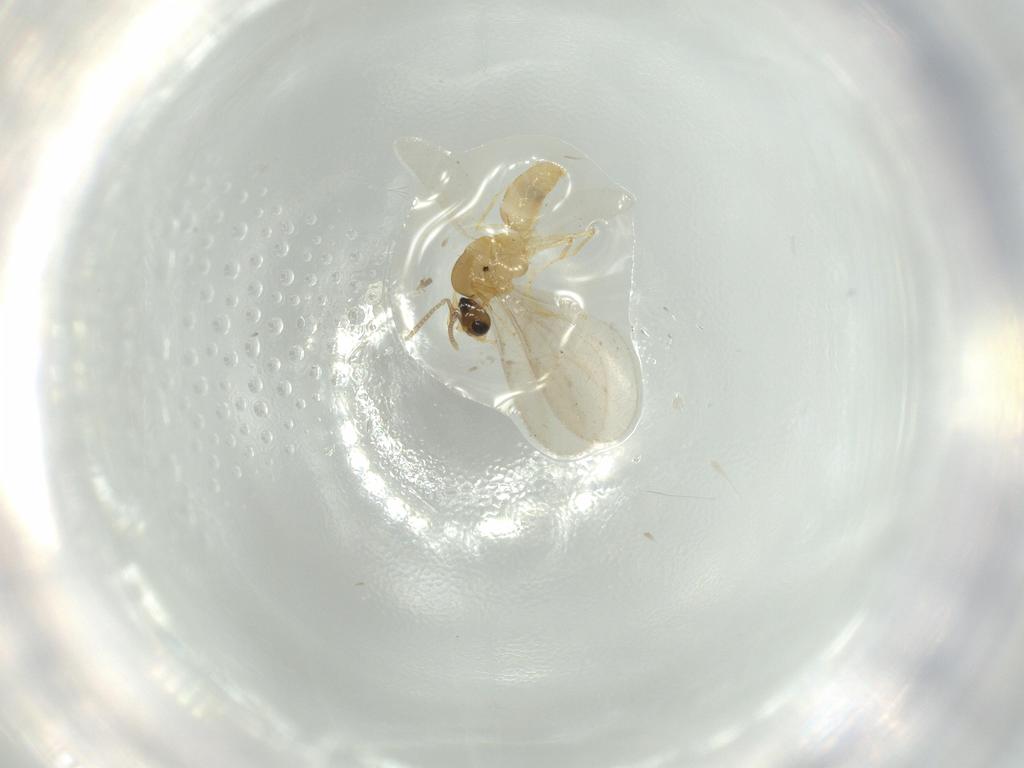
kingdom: Animalia
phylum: Arthropoda
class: Insecta
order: Hymenoptera
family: Formicidae
